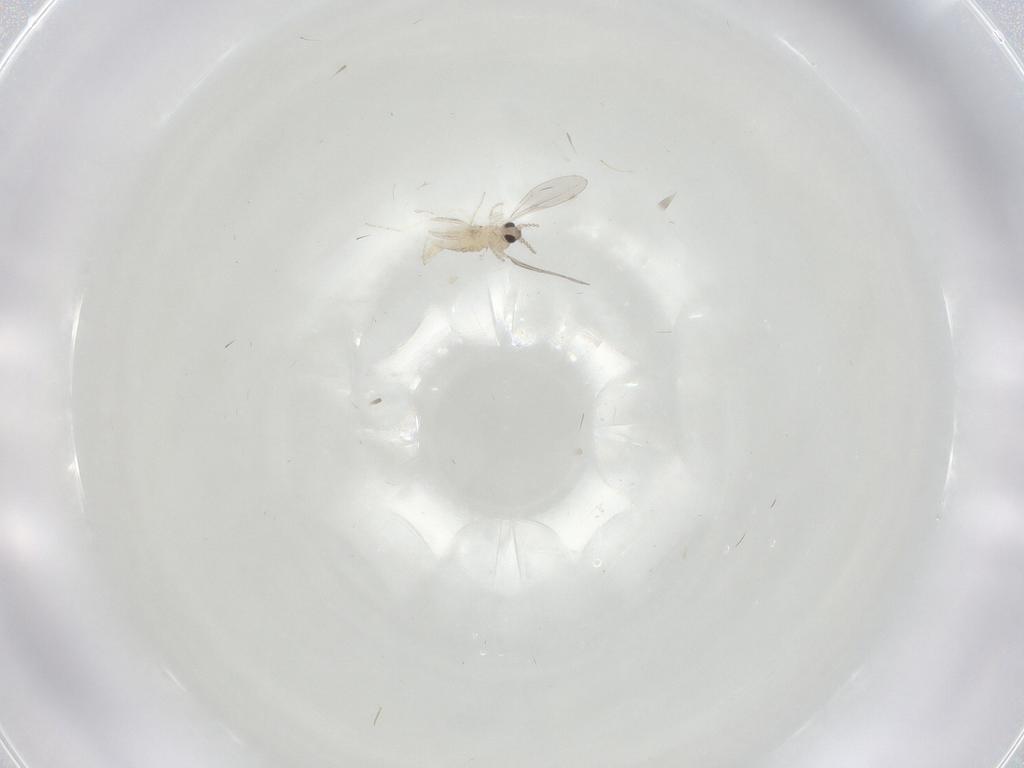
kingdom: Animalia
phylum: Arthropoda
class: Insecta
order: Diptera
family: Cecidomyiidae
